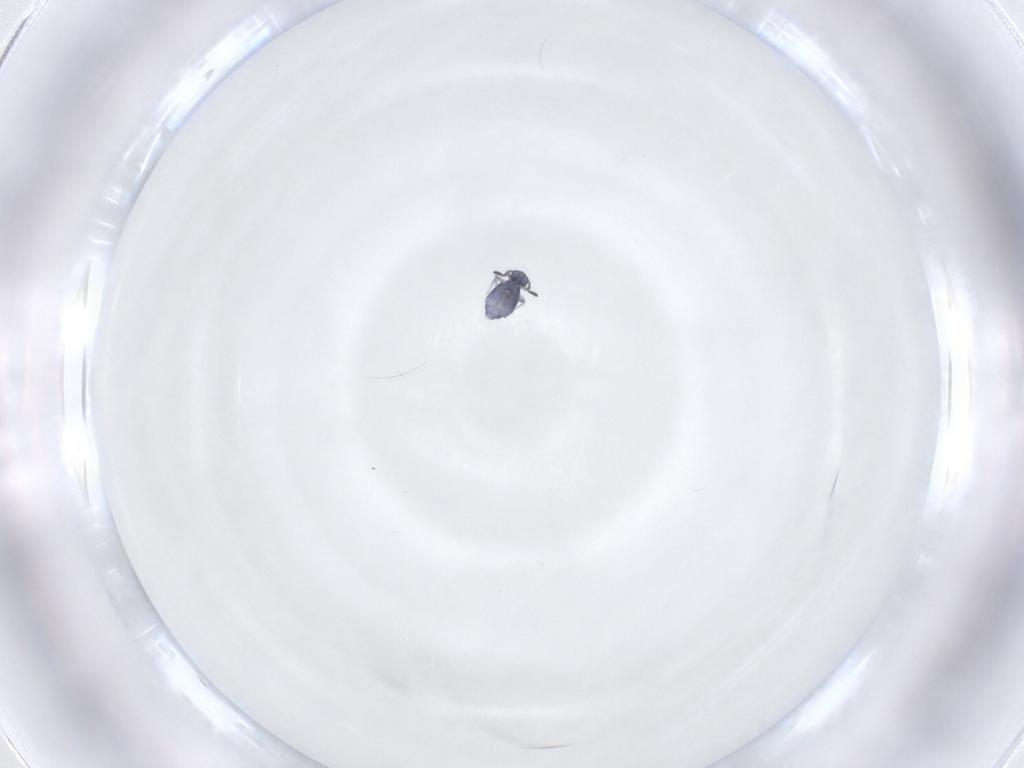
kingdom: Animalia
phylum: Arthropoda
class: Collembola
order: Symphypleona
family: Katiannidae
